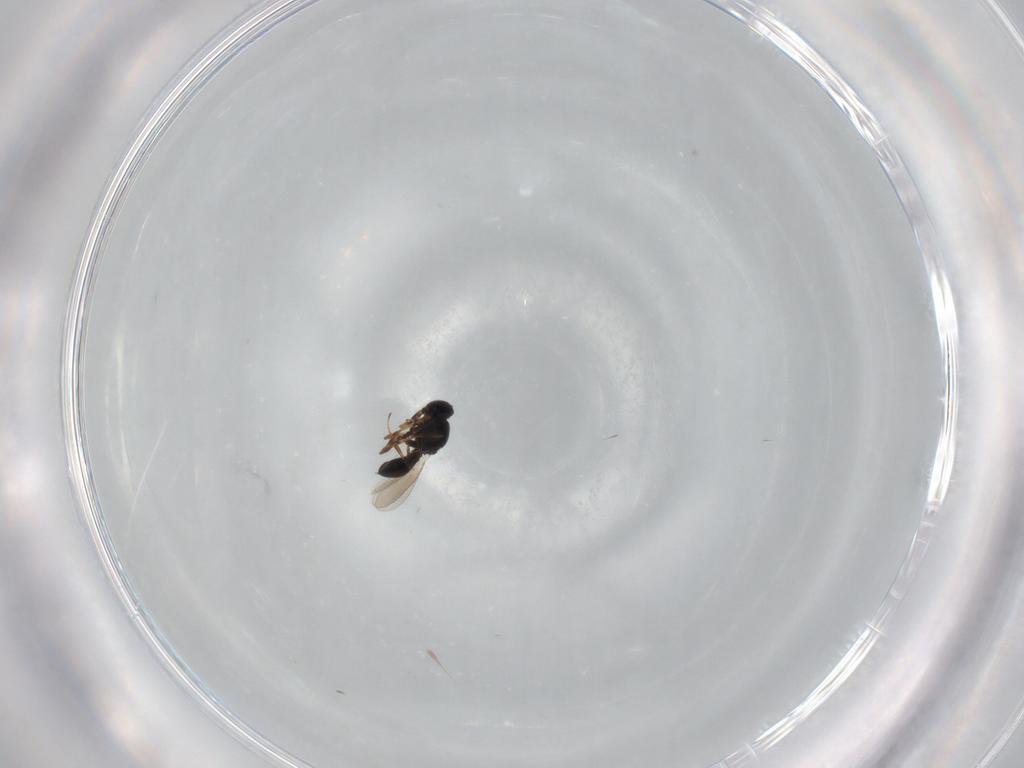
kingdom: Animalia
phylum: Arthropoda
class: Insecta
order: Hymenoptera
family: Platygastridae
